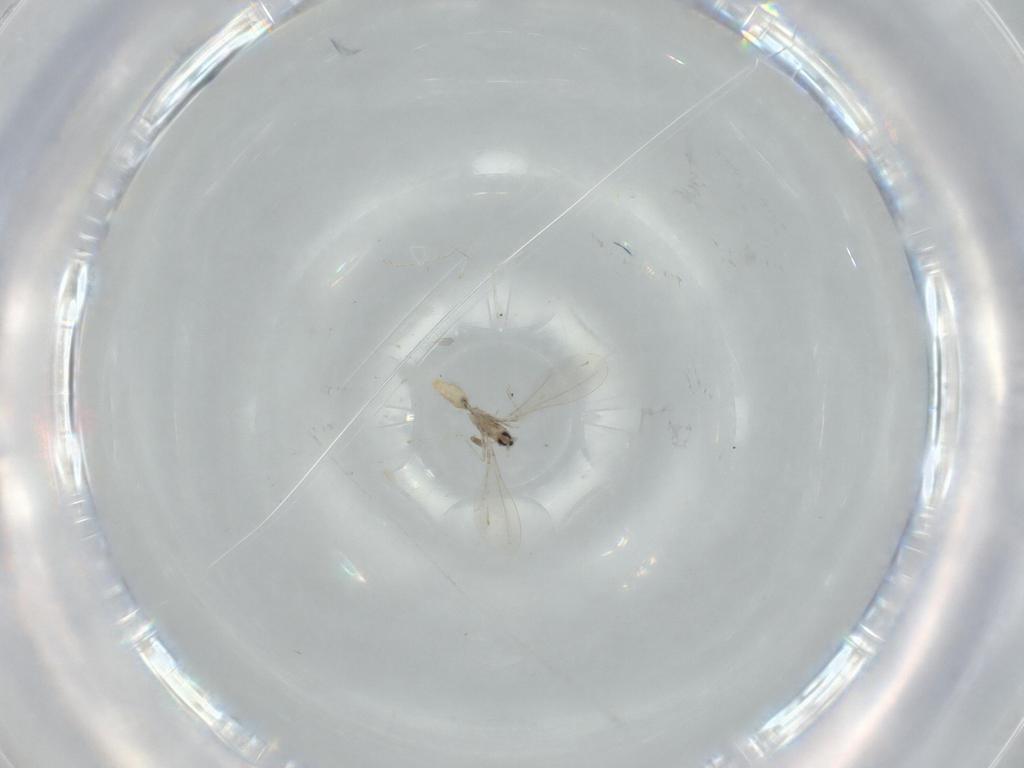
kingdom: Animalia
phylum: Arthropoda
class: Insecta
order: Diptera
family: Cecidomyiidae
